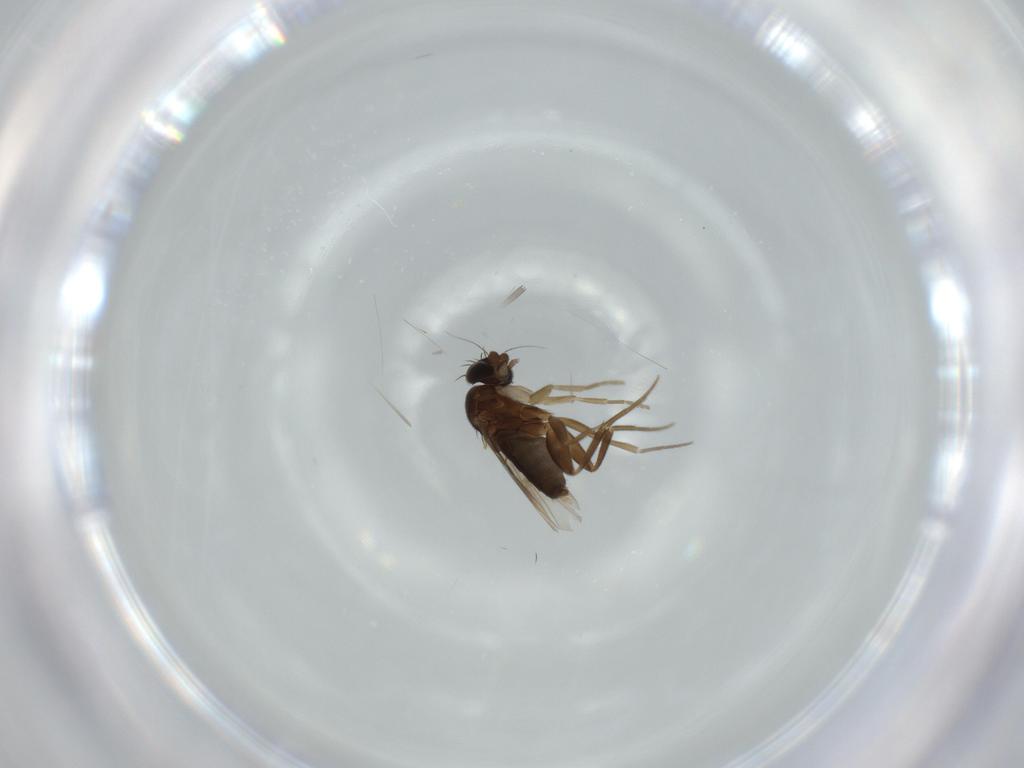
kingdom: Animalia
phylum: Arthropoda
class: Insecta
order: Diptera
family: Phoridae
